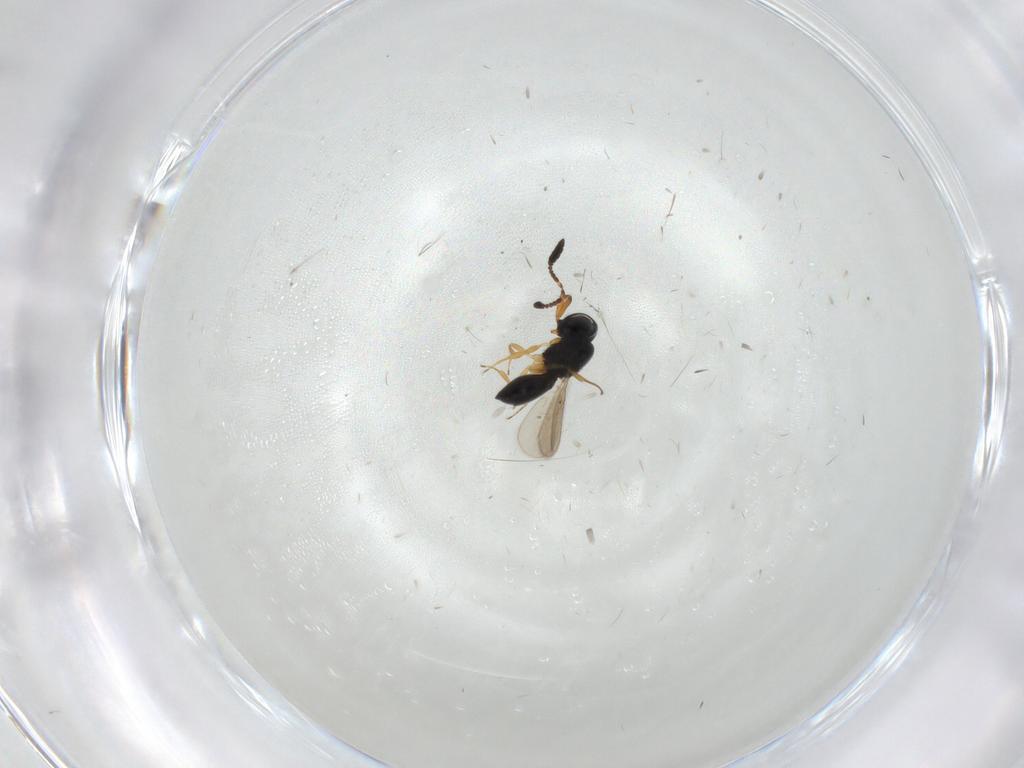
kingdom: Animalia
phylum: Arthropoda
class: Insecta
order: Hymenoptera
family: Scelionidae
